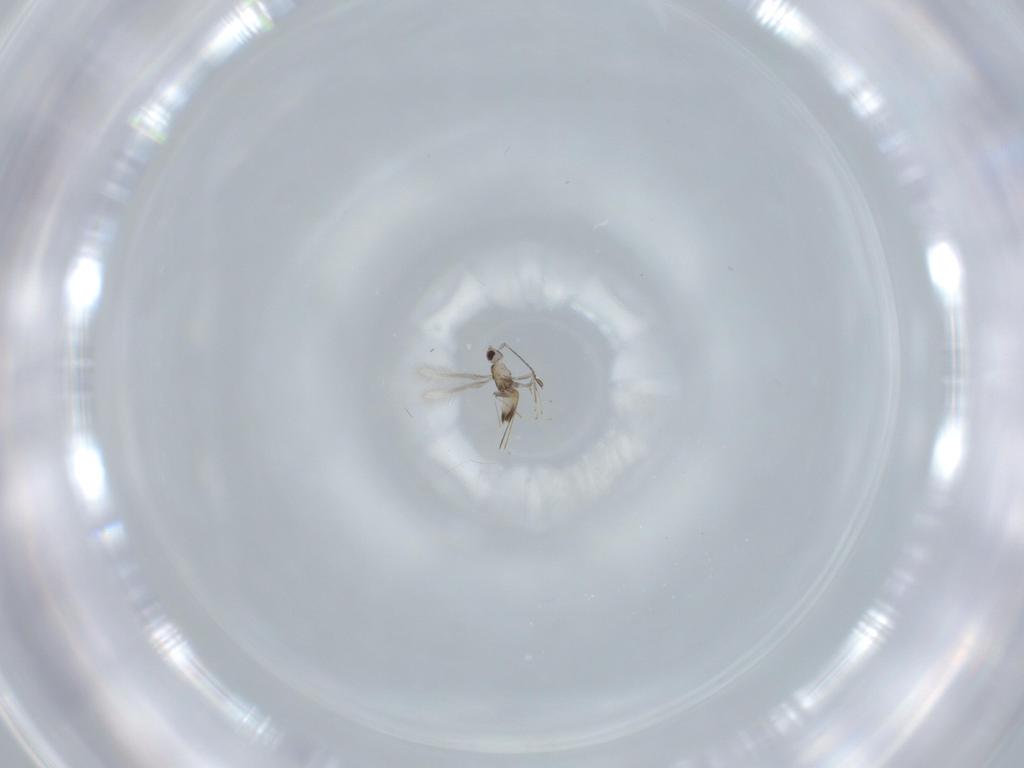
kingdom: Animalia
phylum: Arthropoda
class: Insecta
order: Hymenoptera
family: Mymaridae
